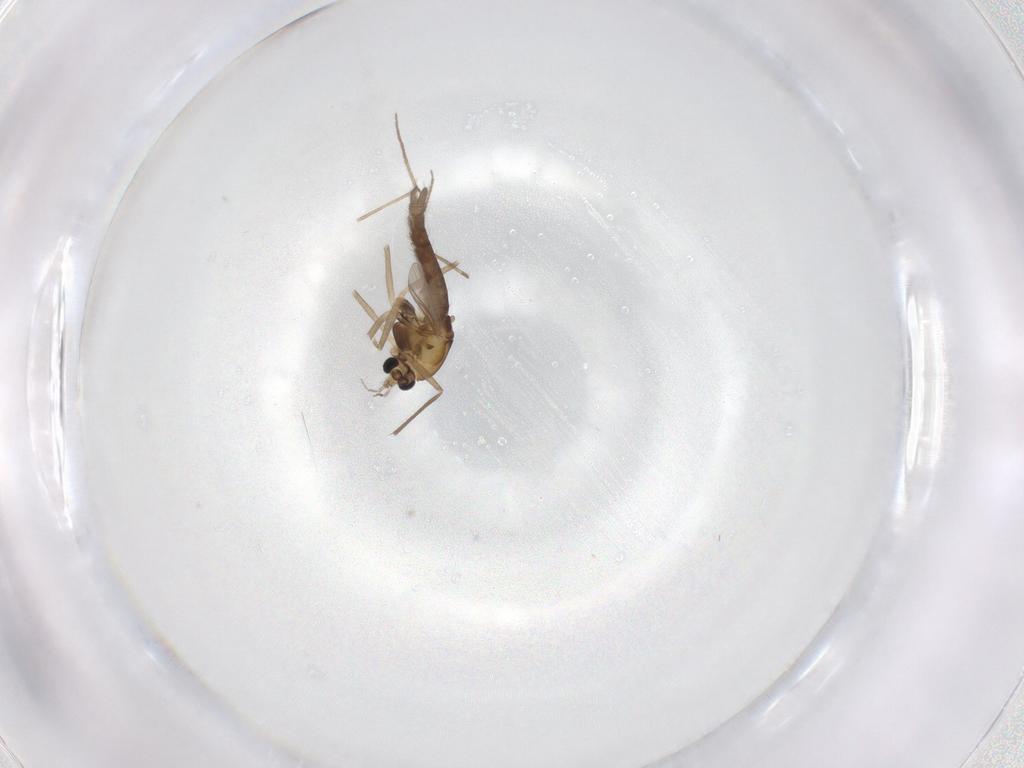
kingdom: Animalia
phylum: Arthropoda
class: Insecta
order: Diptera
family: Chironomidae
